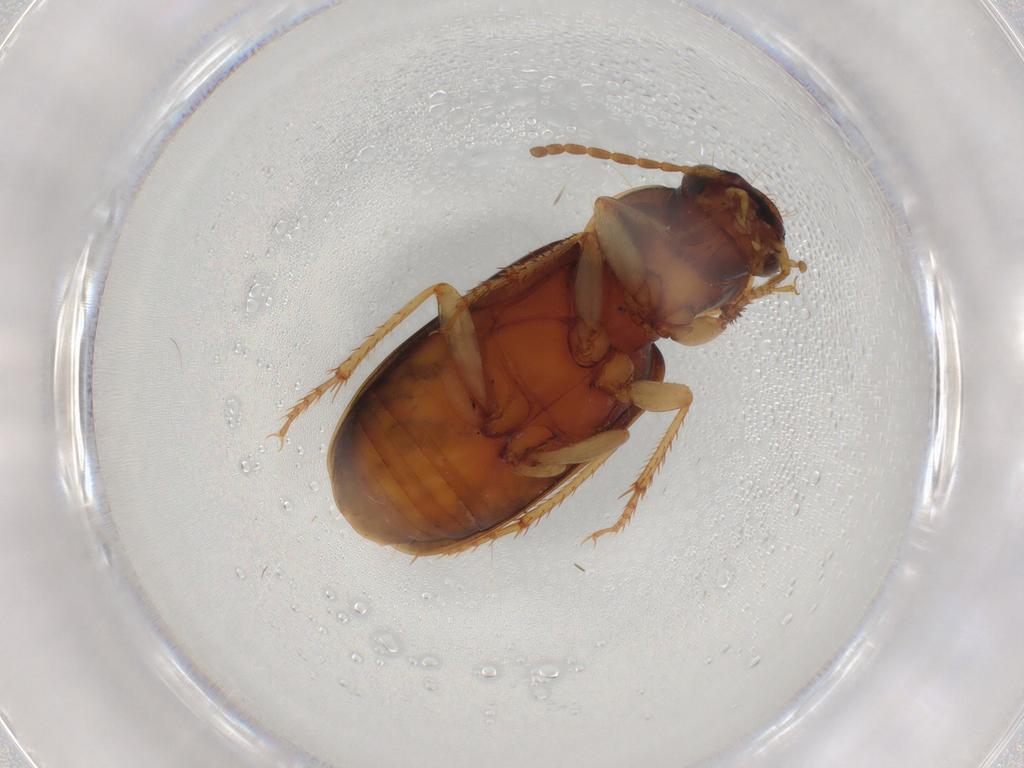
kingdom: Animalia
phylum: Arthropoda
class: Insecta
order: Coleoptera
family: Carabidae
